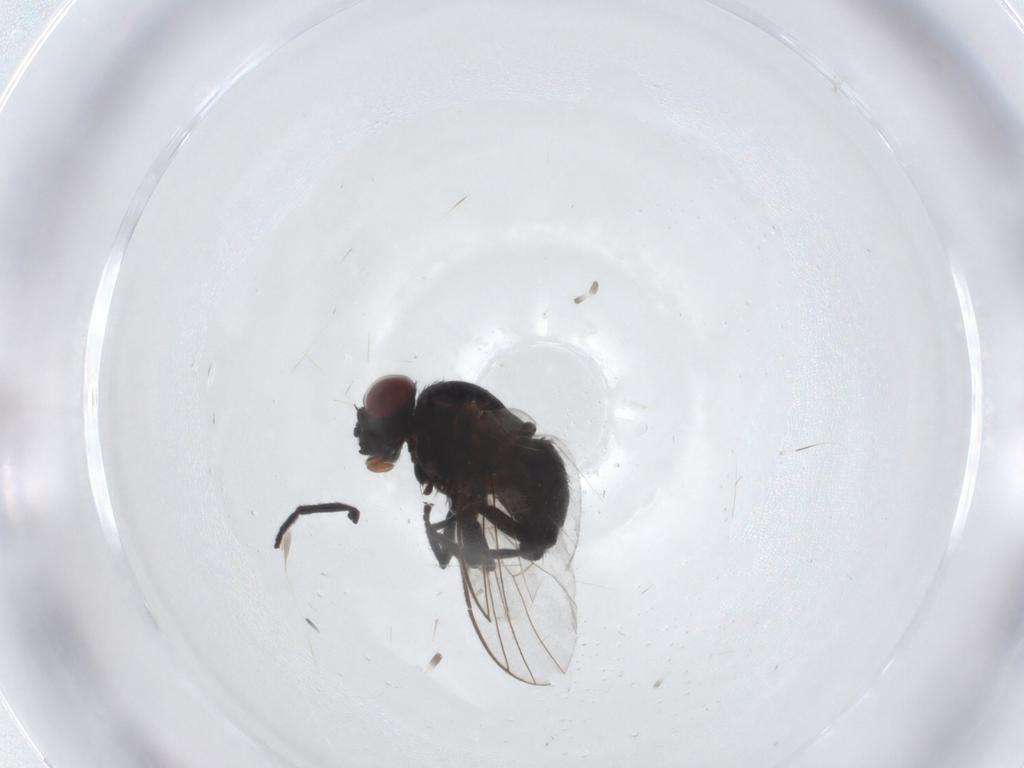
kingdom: Animalia
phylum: Arthropoda
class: Insecta
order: Diptera
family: Agromyzidae
